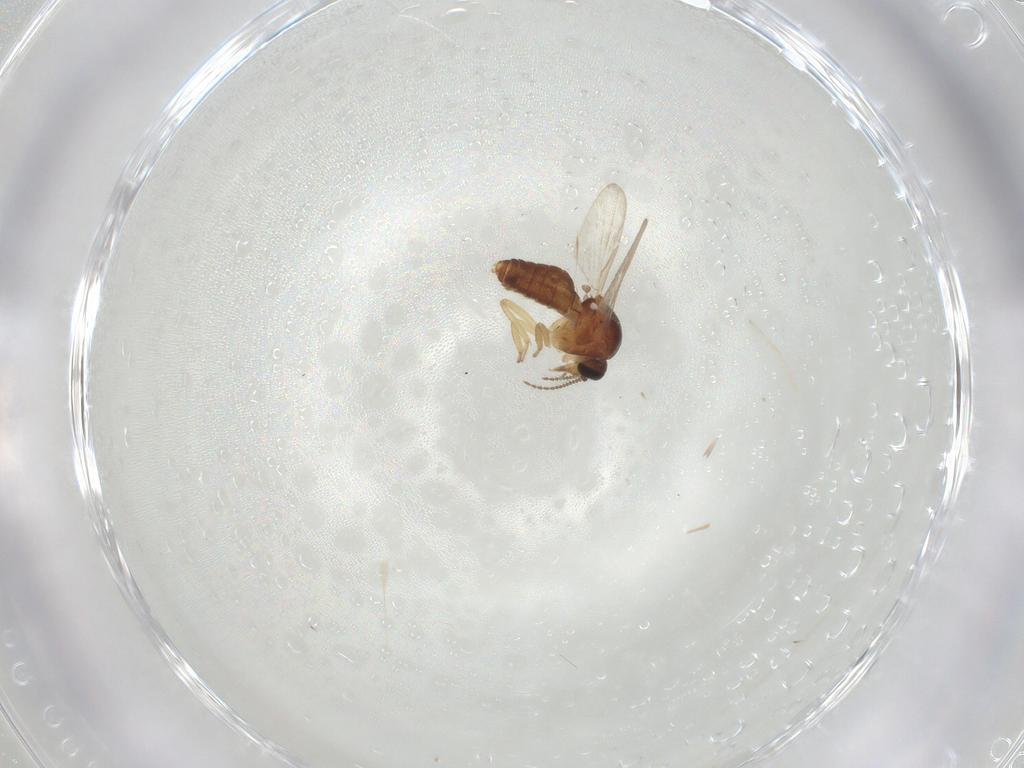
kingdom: Animalia
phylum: Arthropoda
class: Insecta
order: Diptera
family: Ceratopogonidae
